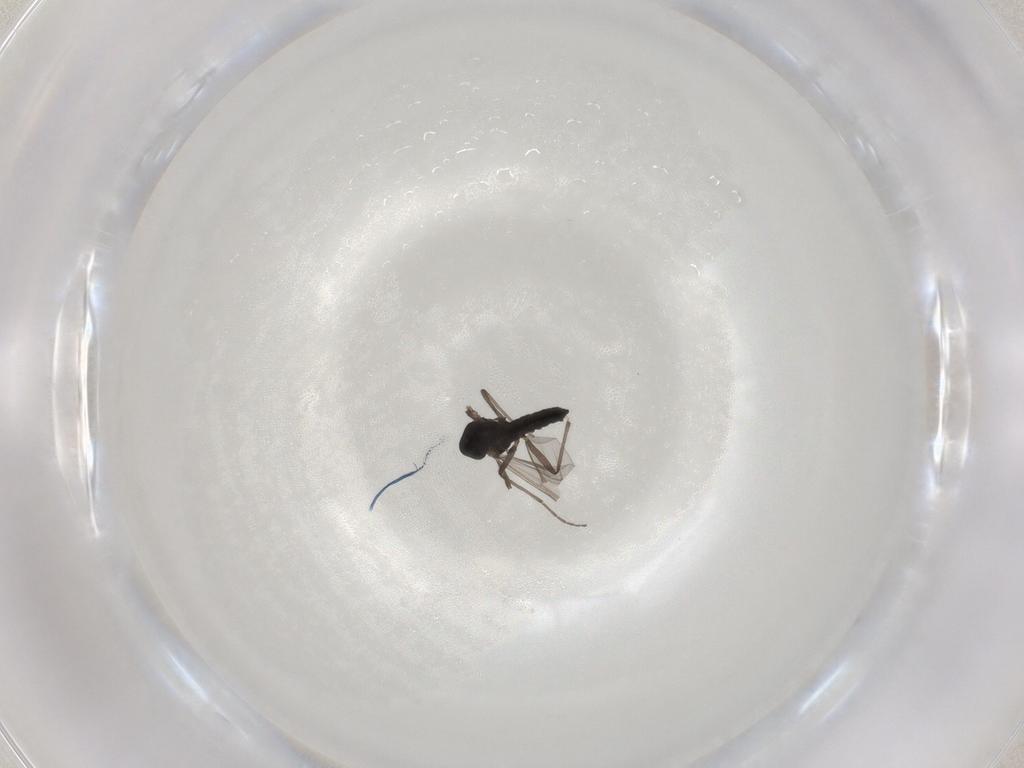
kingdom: Animalia
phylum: Arthropoda
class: Insecta
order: Diptera
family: Chironomidae
